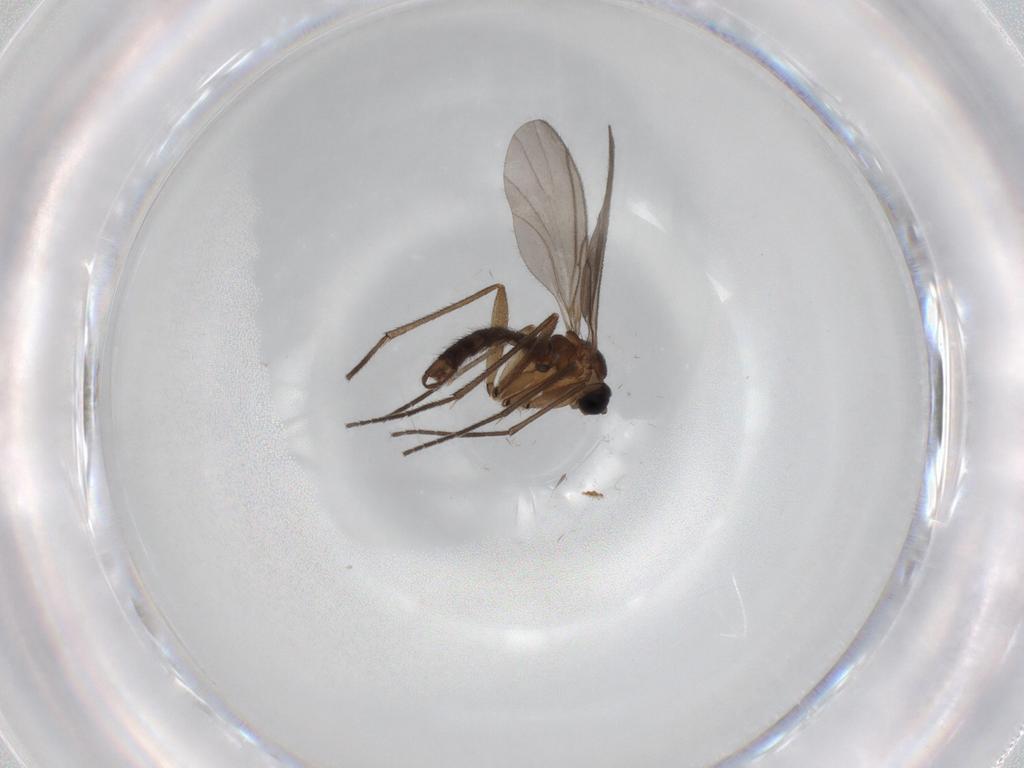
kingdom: Animalia
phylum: Arthropoda
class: Insecta
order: Diptera
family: Sciaridae
